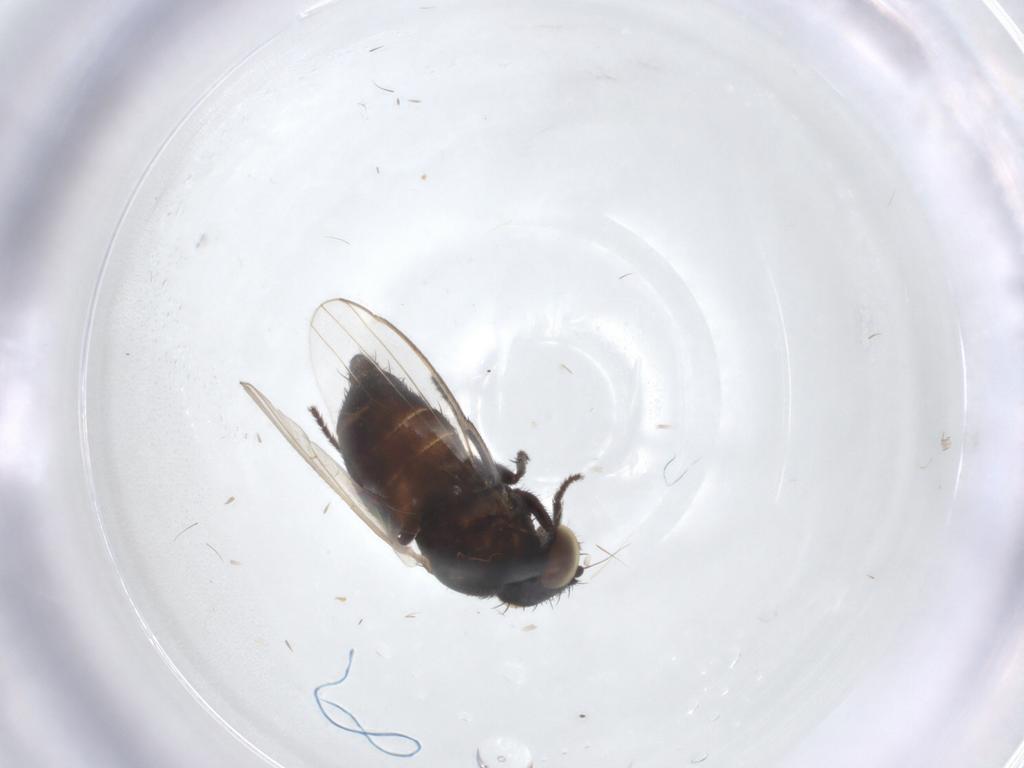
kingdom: Animalia
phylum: Arthropoda
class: Insecta
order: Diptera
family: Milichiidae
